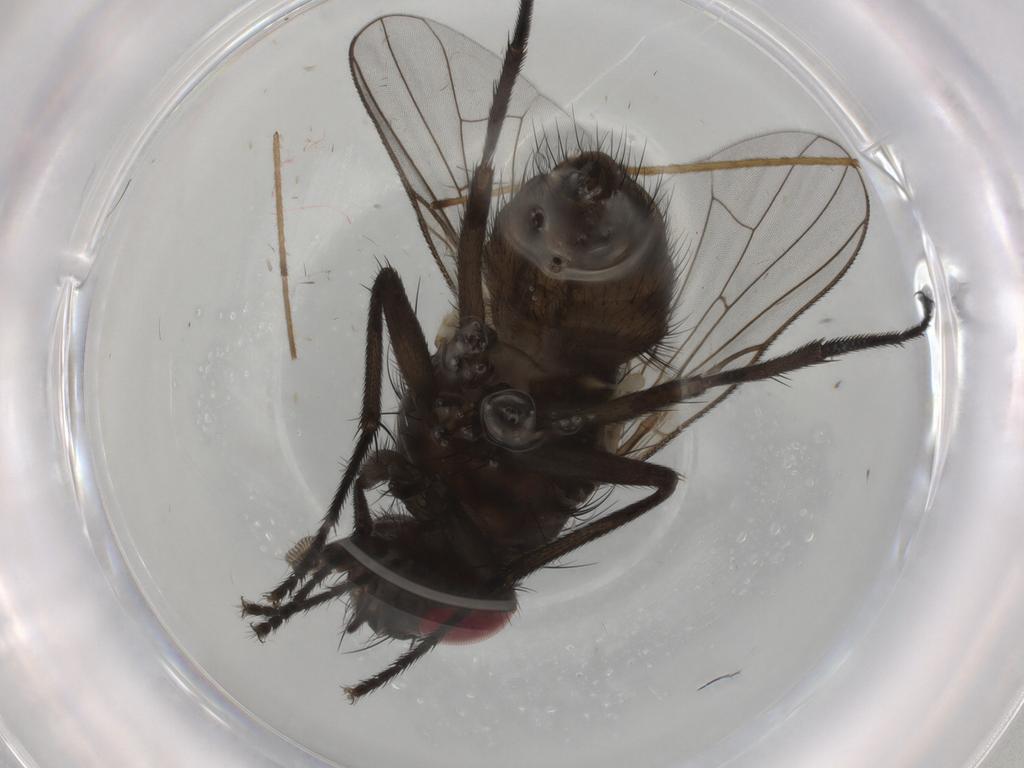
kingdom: Animalia
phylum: Arthropoda
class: Insecta
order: Diptera
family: Muscidae
